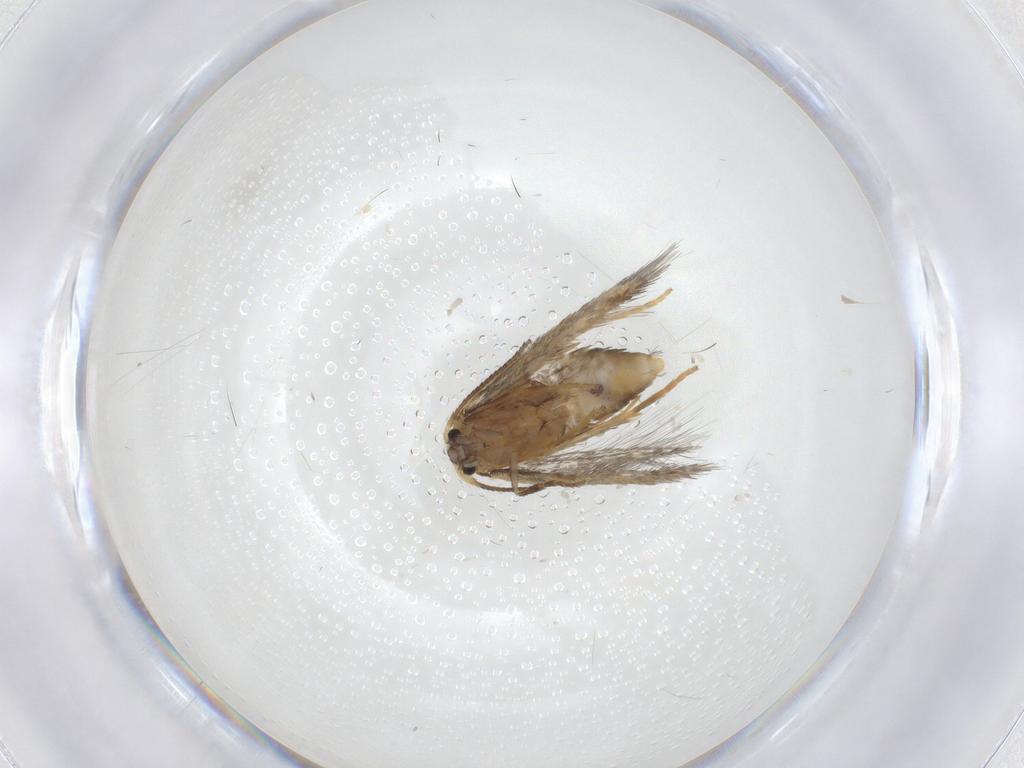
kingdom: Animalia
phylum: Arthropoda
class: Insecta
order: Lepidoptera
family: Nepticulidae
